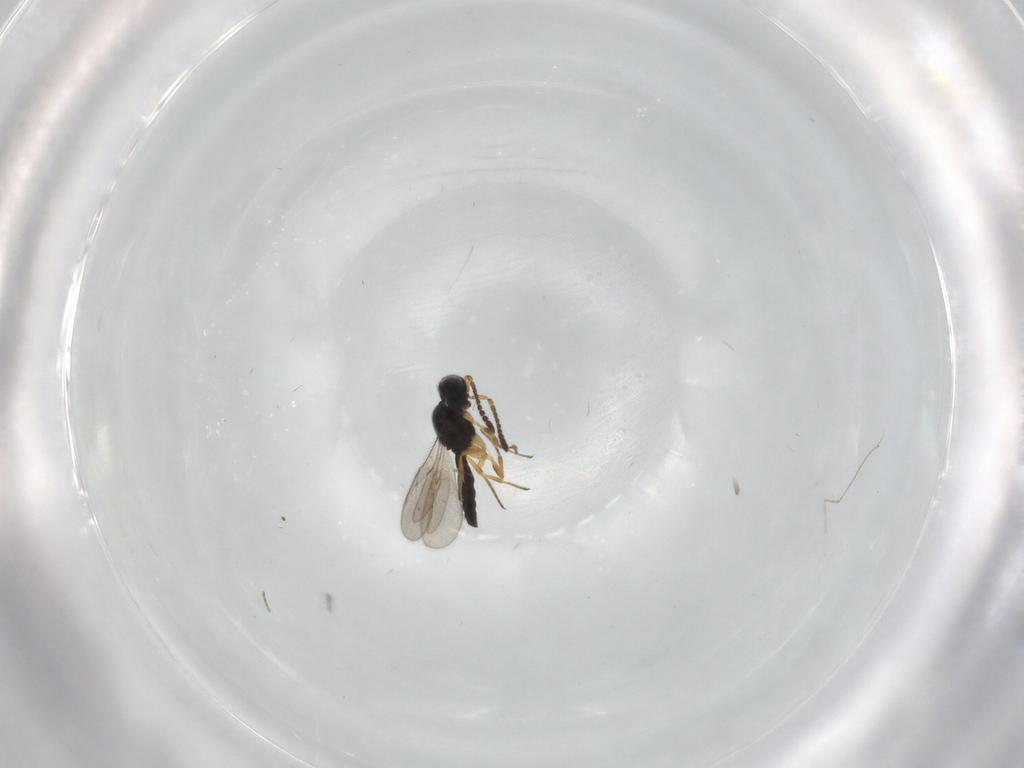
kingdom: Animalia
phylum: Arthropoda
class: Insecta
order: Hymenoptera
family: Scelionidae
